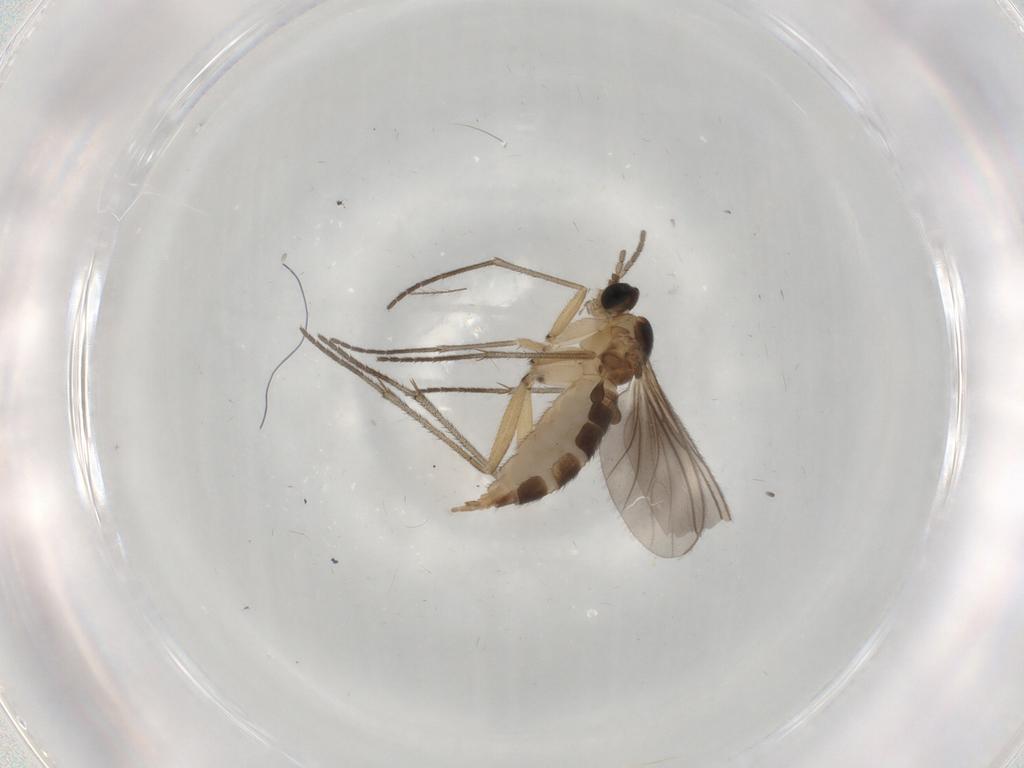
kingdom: Animalia
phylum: Arthropoda
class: Insecta
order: Diptera
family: Sciaridae
